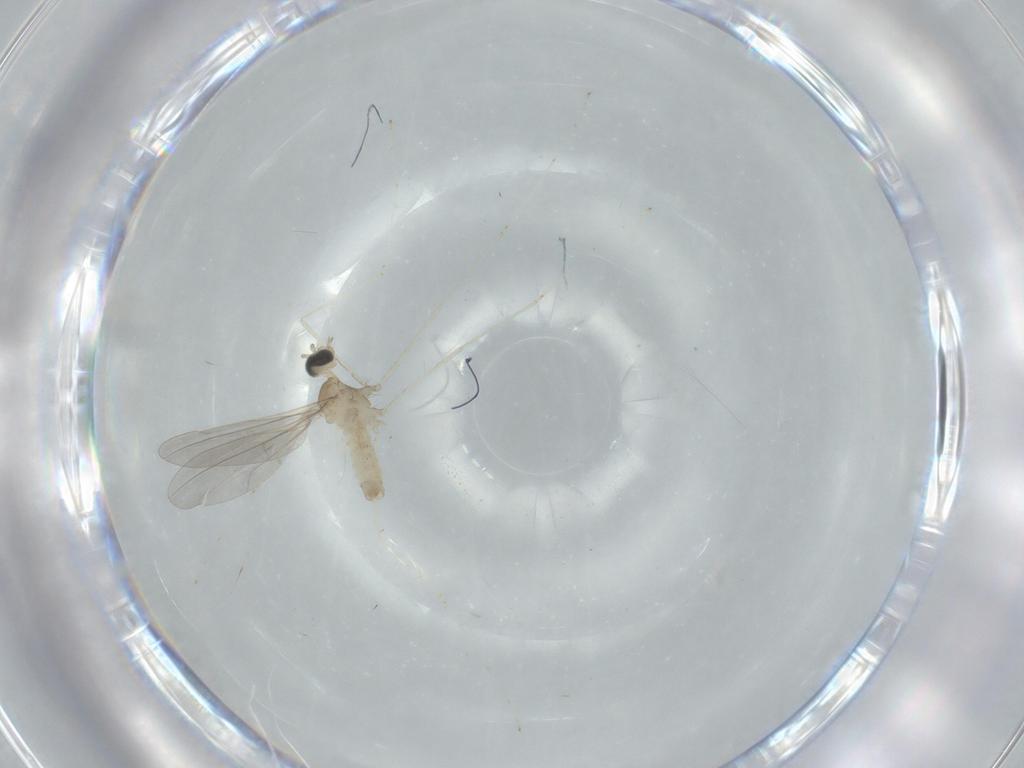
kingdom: Animalia
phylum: Arthropoda
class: Insecta
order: Diptera
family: Cecidomyiidae
